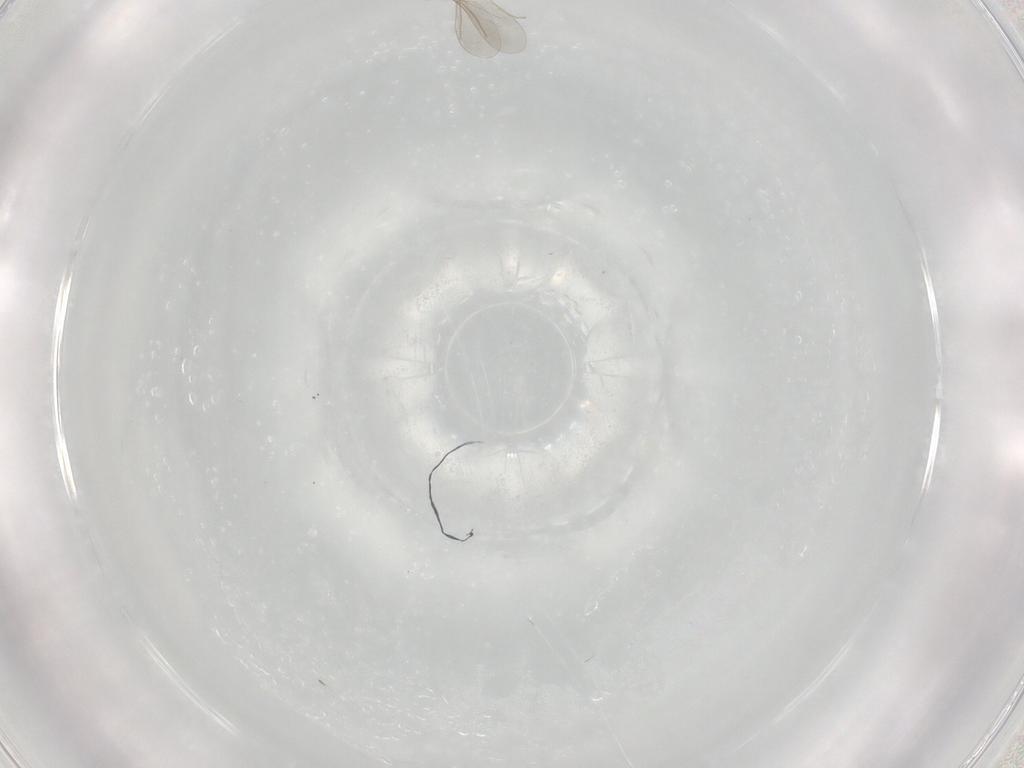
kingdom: Animalia
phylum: Arthropoda
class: Insecta
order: Diptera
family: Cecidomyiidae
